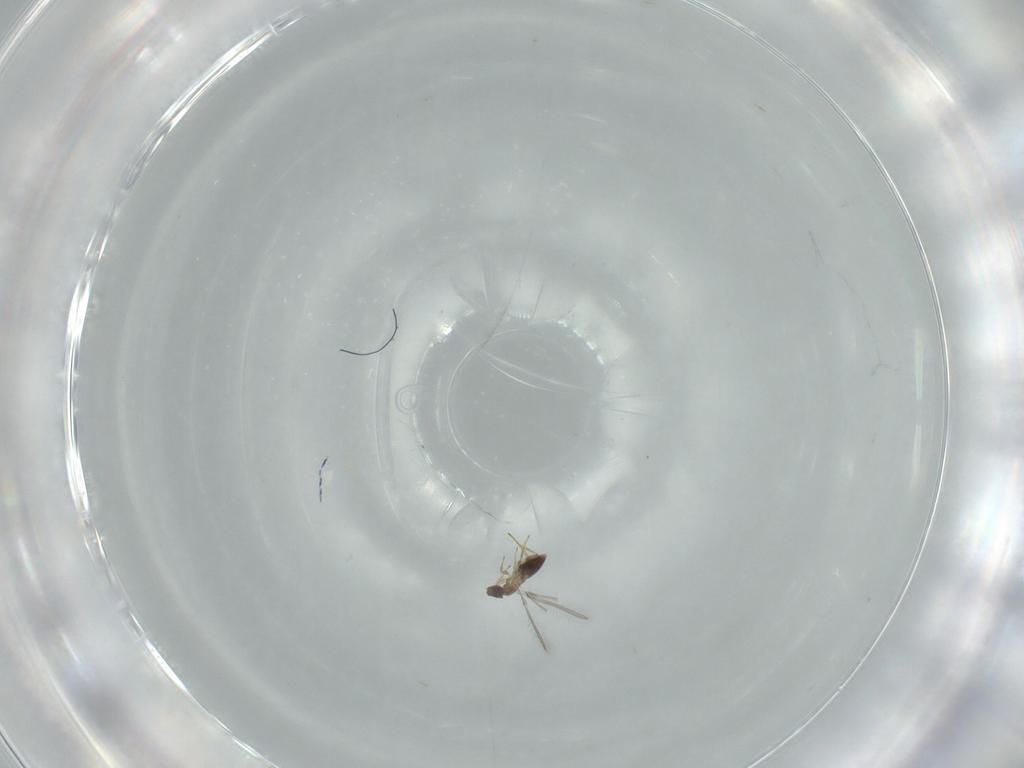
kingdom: Animalia
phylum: Arthropoda
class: Insecta
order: Hymenoptera
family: Mymaridae
